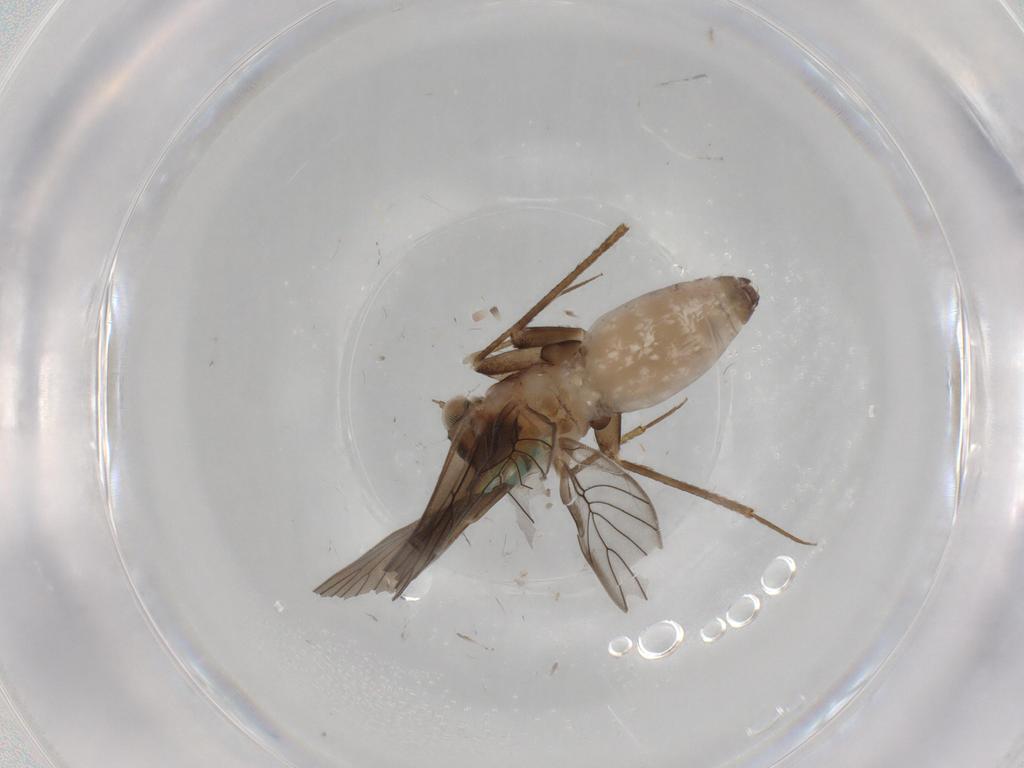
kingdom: Animalia
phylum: Arthropoda
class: Insecta
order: Psocodea
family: Lepidopsocidae
